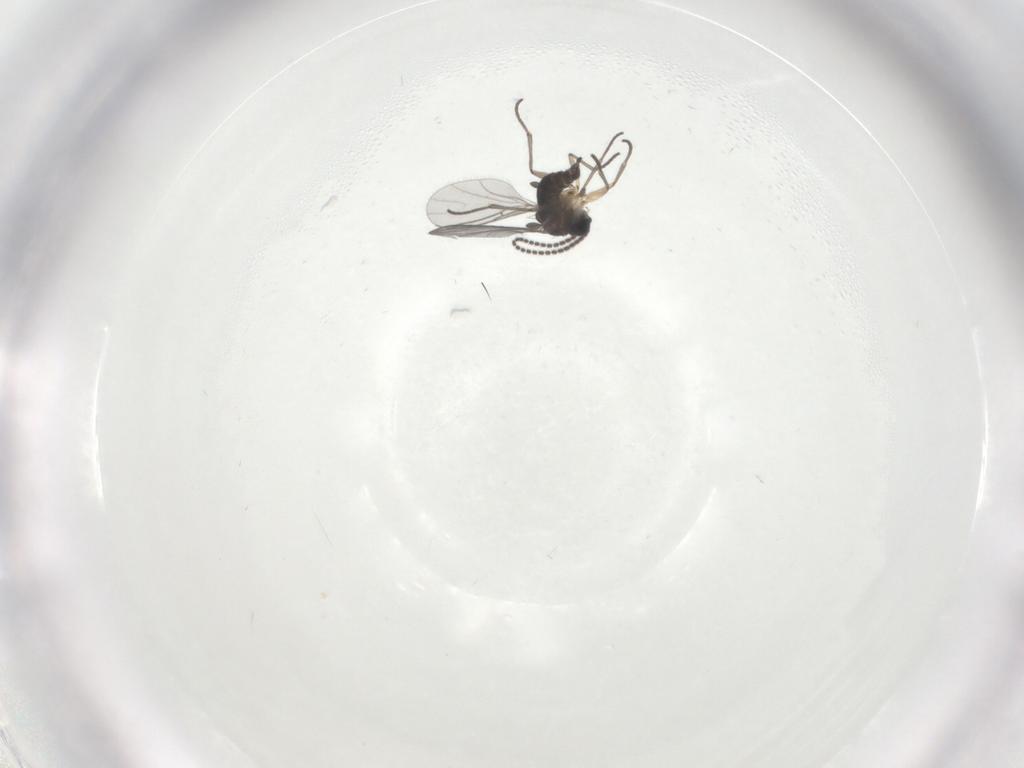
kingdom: Animalia
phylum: Arthropoda
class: Insecta
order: Diptera
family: Sciaridae
